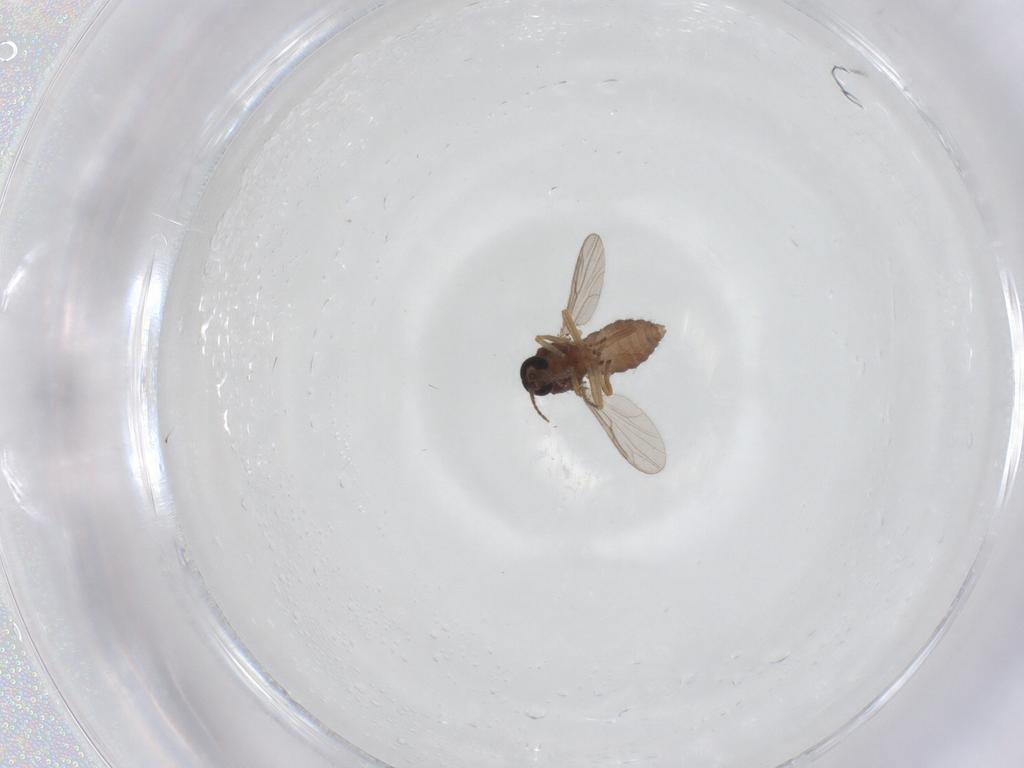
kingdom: Animalia
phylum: Arthropoda
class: Insecta
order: Diptera
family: Ceratopogonidae
